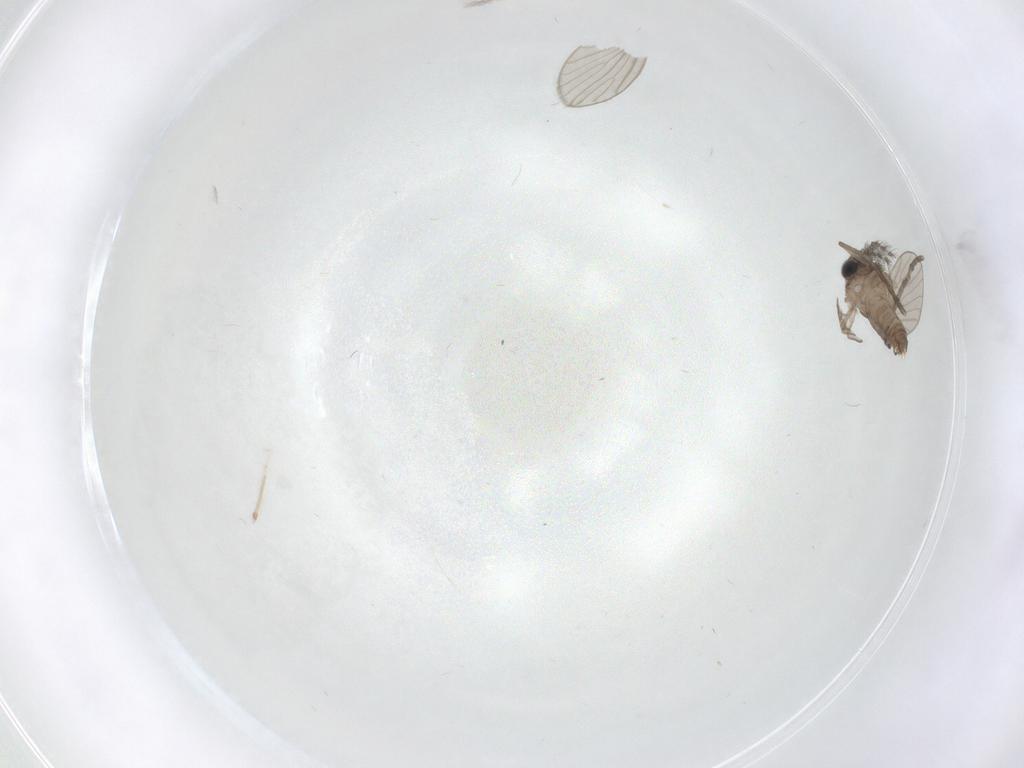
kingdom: Animalia
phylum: Arthropoda
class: Insecta
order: Diptera
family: Psychodidae
